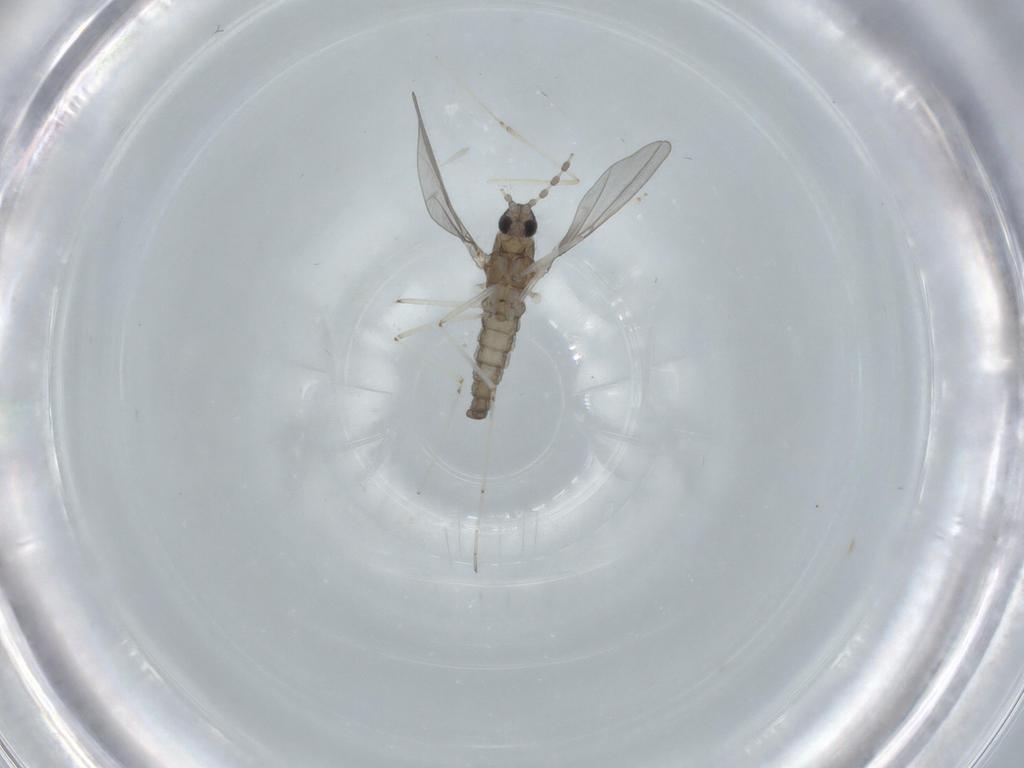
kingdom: Animalia
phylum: Arthropoda
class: Insecta
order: Diptera
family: Cecidomyiidae
